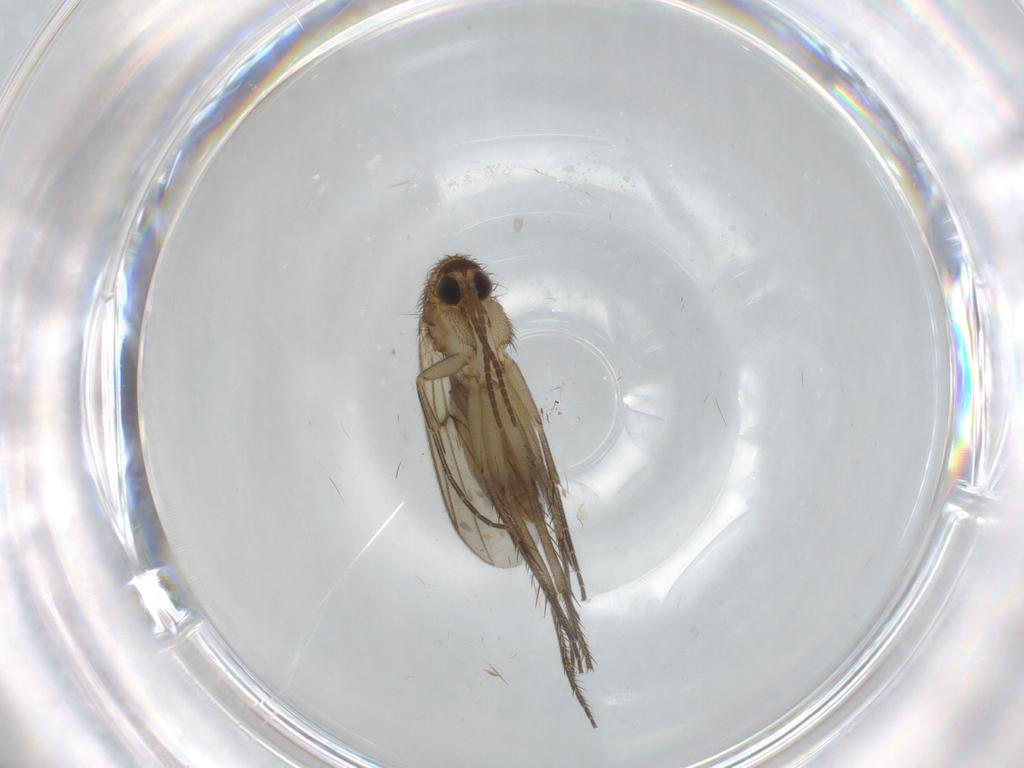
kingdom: Animalia
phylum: Arthropoda
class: Insecta
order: Diptera
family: Mycetophilidae
